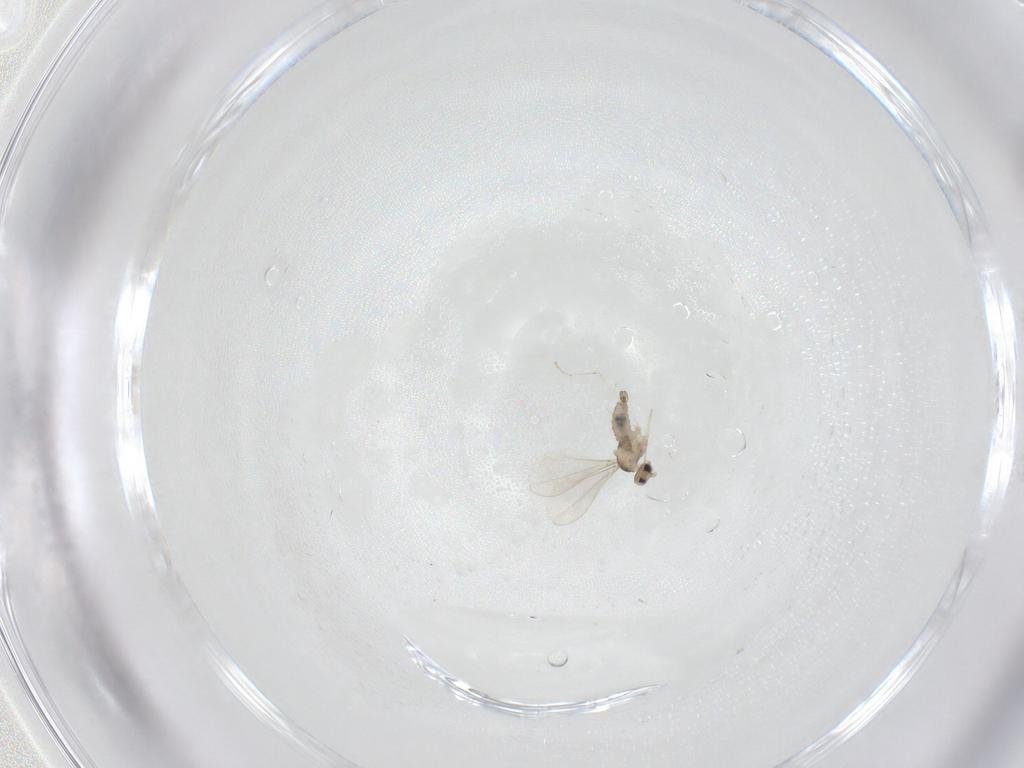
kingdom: Animalia
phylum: Arthropoda
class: Insecta
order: Diptera
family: Cecidomyiidae
